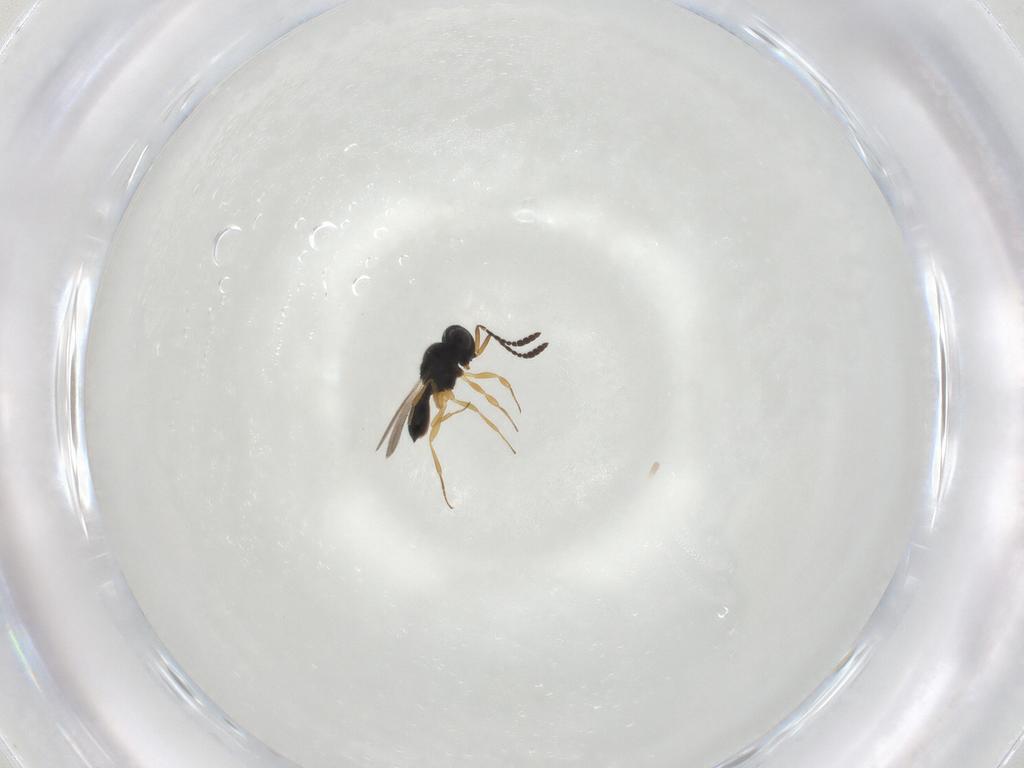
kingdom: Animalia
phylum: Arthropoda
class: Insecta
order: Hymenoptera
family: Scelionidae
